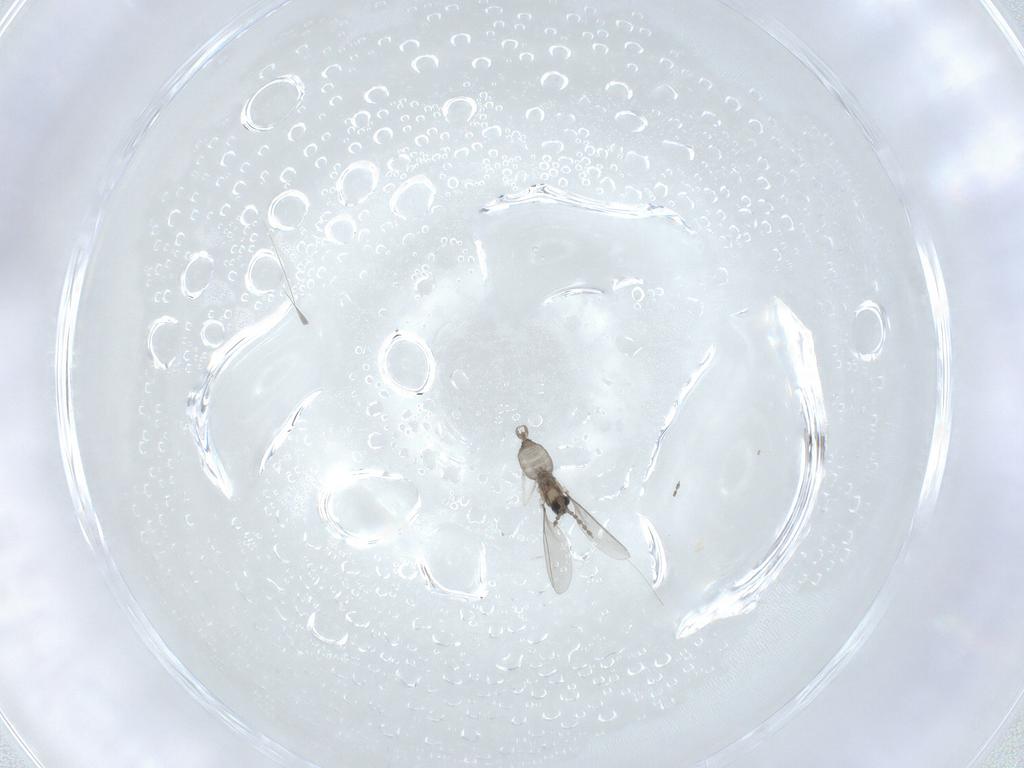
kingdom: Animalia
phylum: Arthropoda
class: Insecta
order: Diptera
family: Cecidomyiidae
